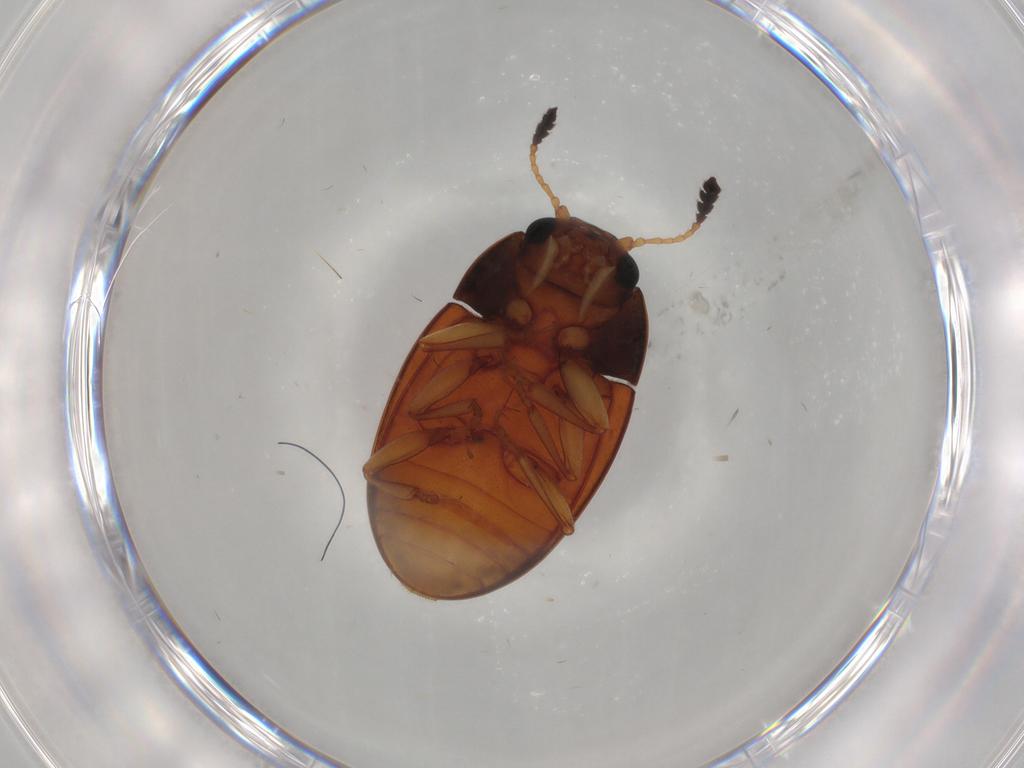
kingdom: Animalia
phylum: Arthropoda
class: Insecta
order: Coleoptera
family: Erotylidae
